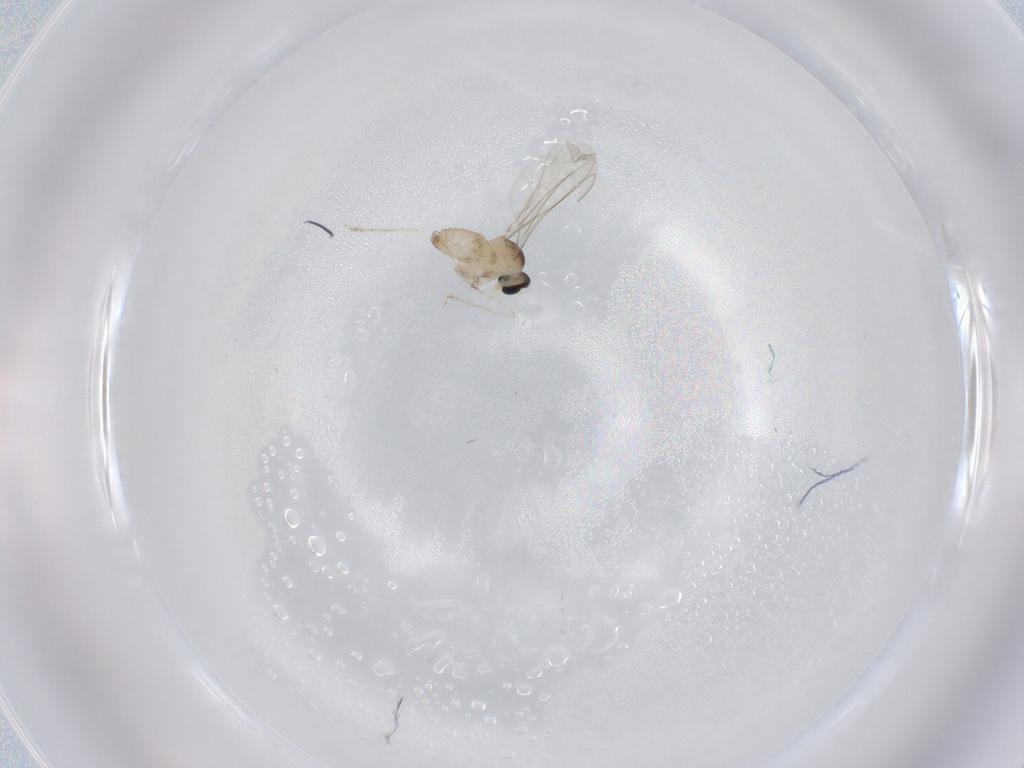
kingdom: Animalia
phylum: Arthropoda
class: Insecta
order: Diptera
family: Cecidomyiidae
